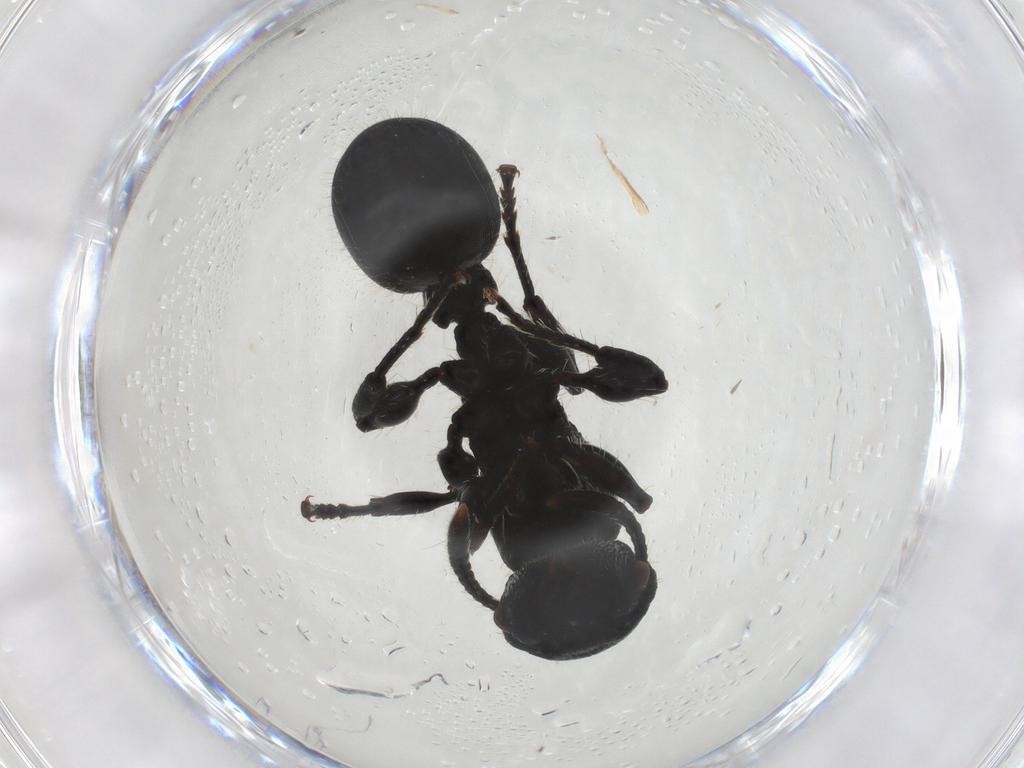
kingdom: Animalia
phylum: Arthropoda
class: Insecta
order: Hymenoptera
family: Formicidae
